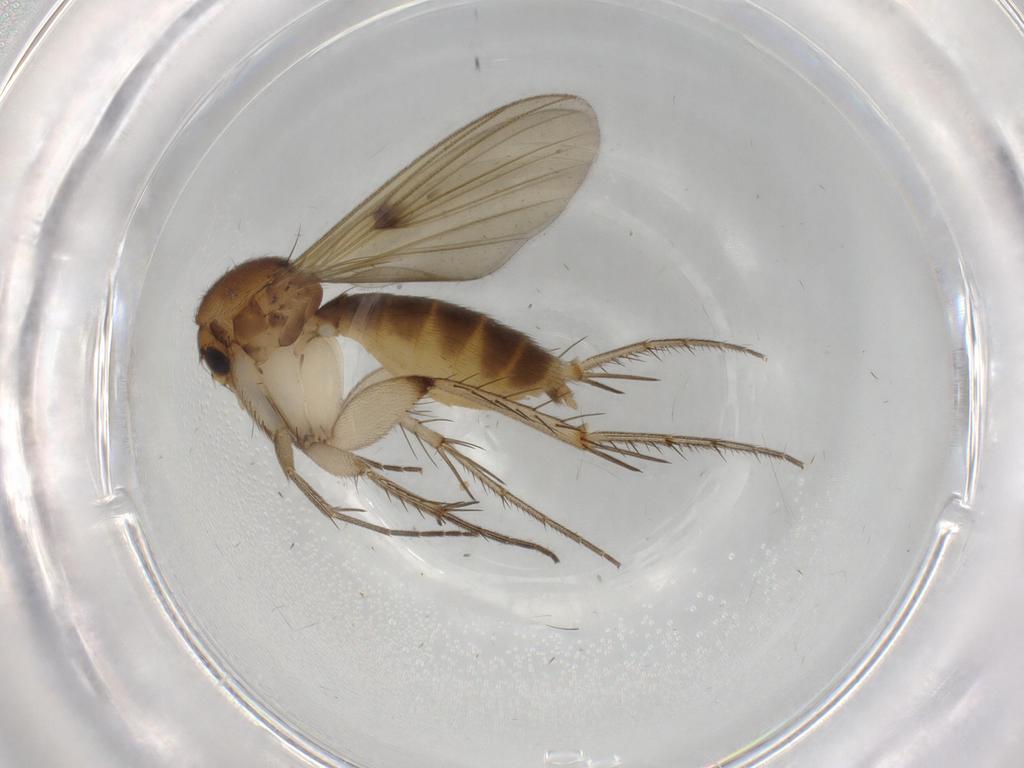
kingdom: Animalia
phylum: Arthropoda
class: Insecta
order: Diptera
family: Mycetophilidae
